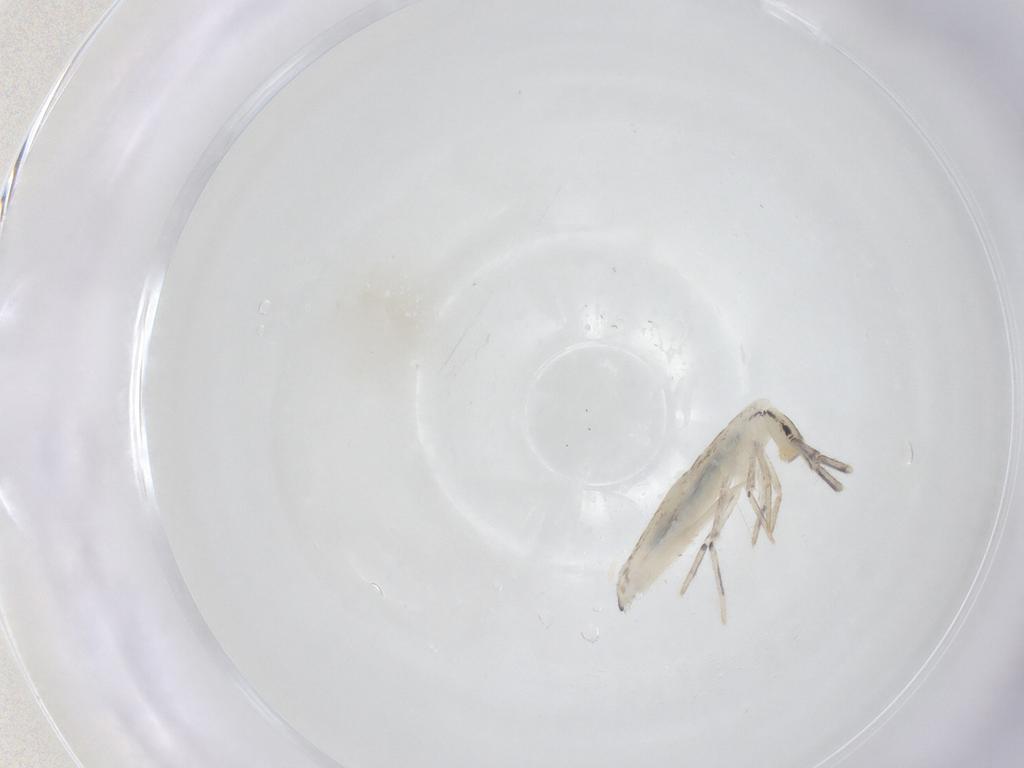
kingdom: Animalia
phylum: Arthropoda
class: Collembola
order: Entomobryomorpha
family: Entomobryidae
